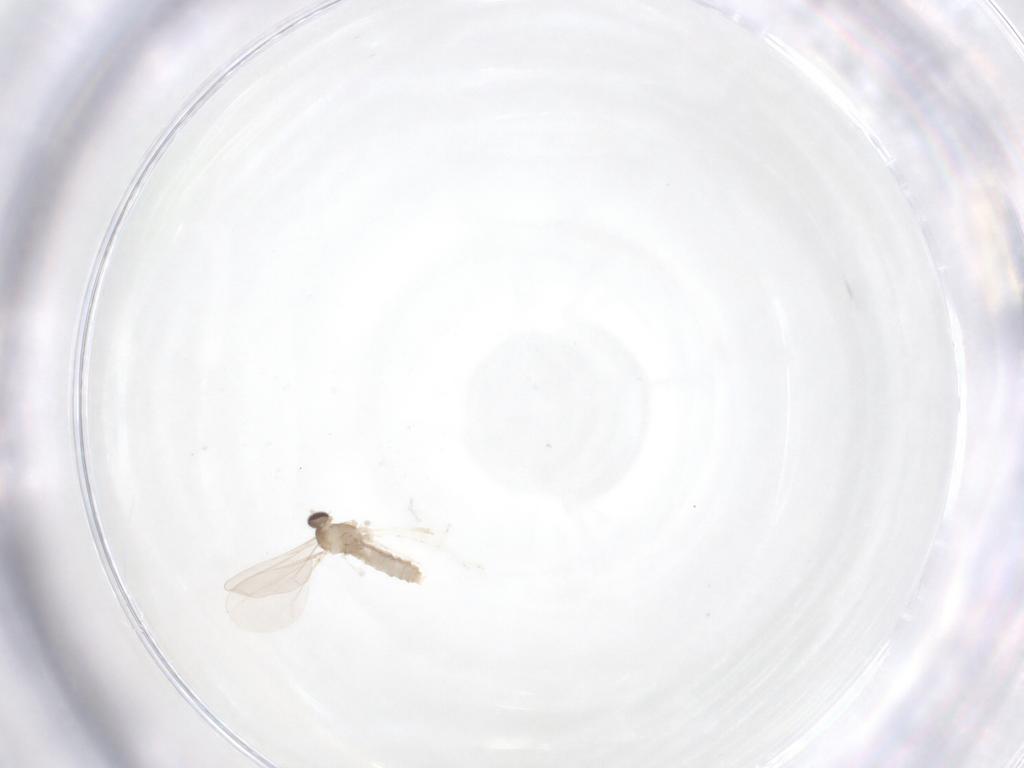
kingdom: Animalia
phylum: Arthropoda
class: Insecta
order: Diptera
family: Cecidomyiidae
